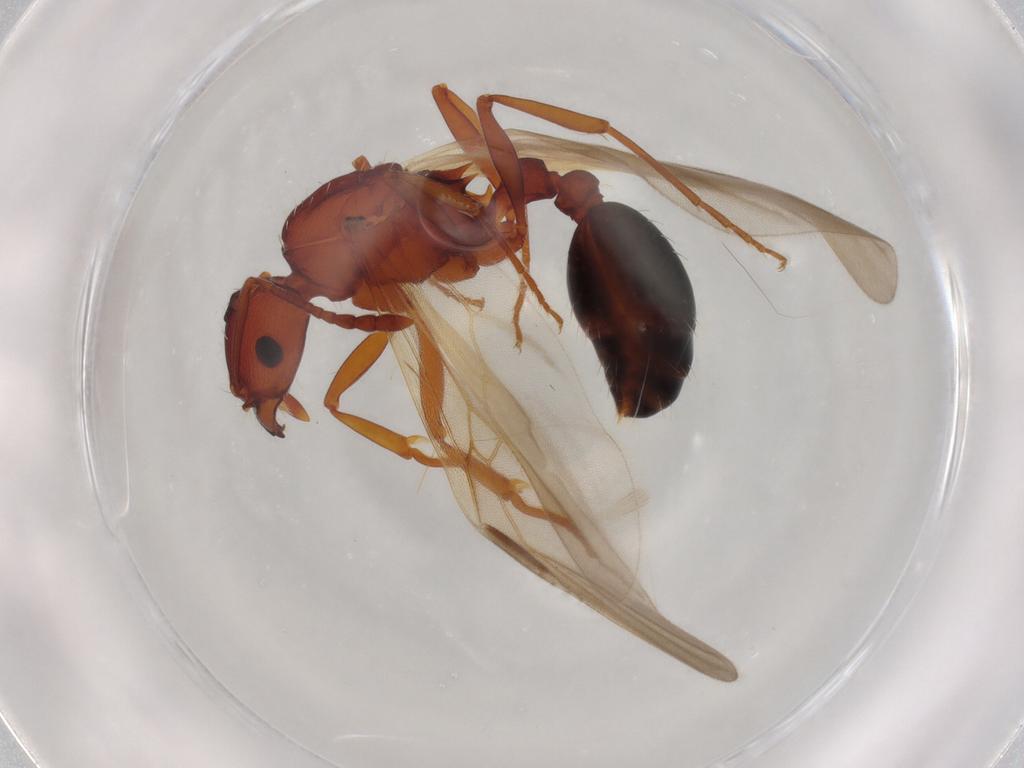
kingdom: Animalia
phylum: Arthropoda
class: Insecta
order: Hymenoptera
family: Formicidae
